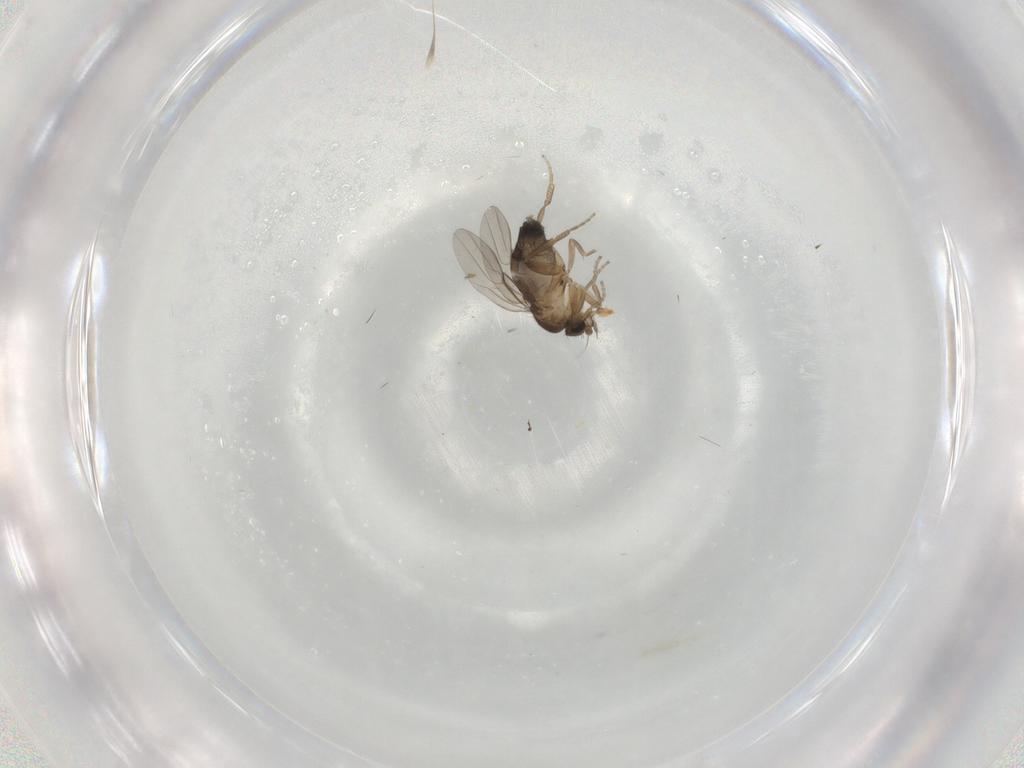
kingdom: Animalia
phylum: Arthropoda
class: Insecta
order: Diptera
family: Phoridae
